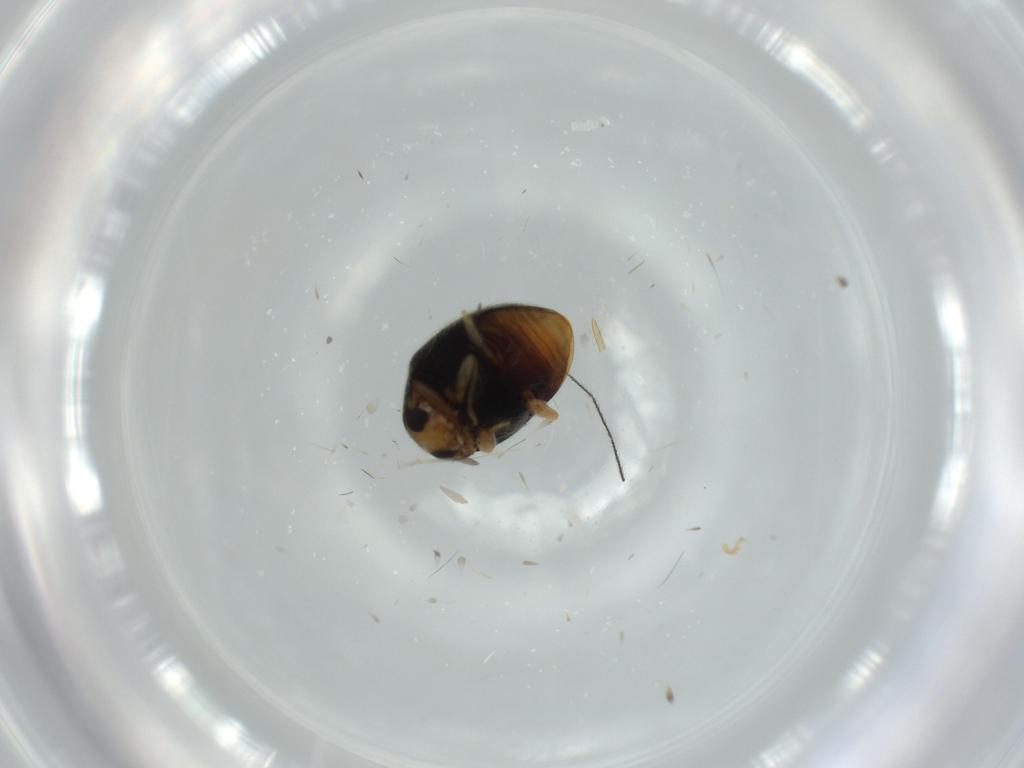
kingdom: Animalia
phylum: Arthropoda
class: Insecta
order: Coleoptera
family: Coccinellidae
